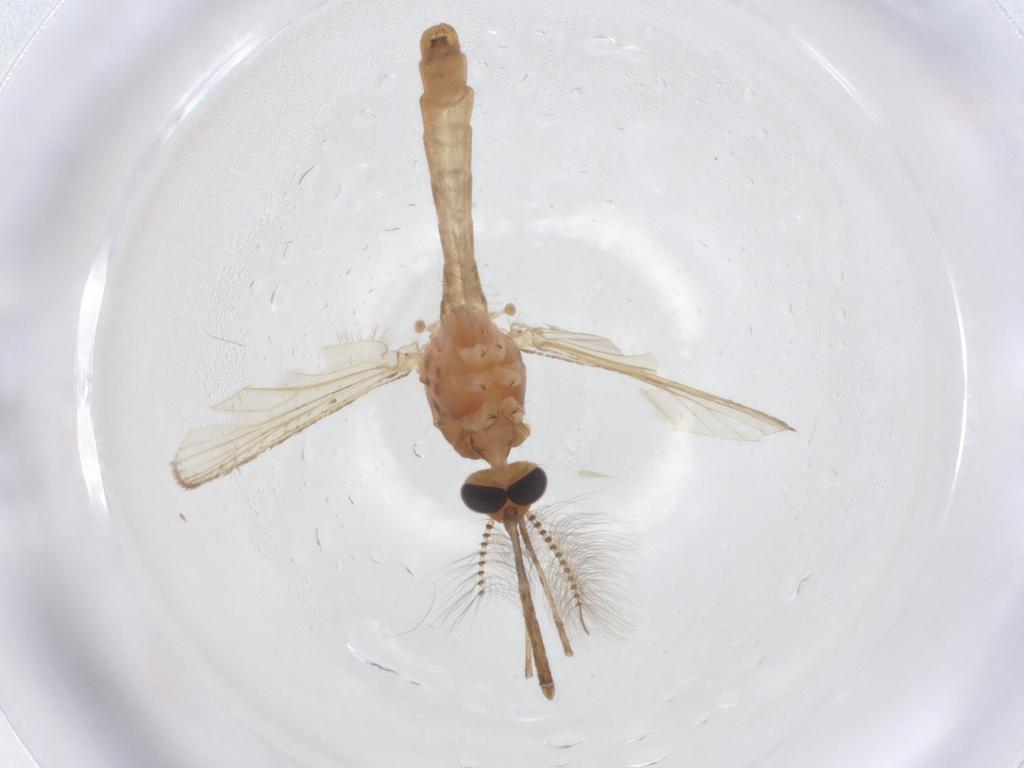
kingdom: Animalia
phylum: Arthropoda
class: Insecta
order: Diptera
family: Culicidae
